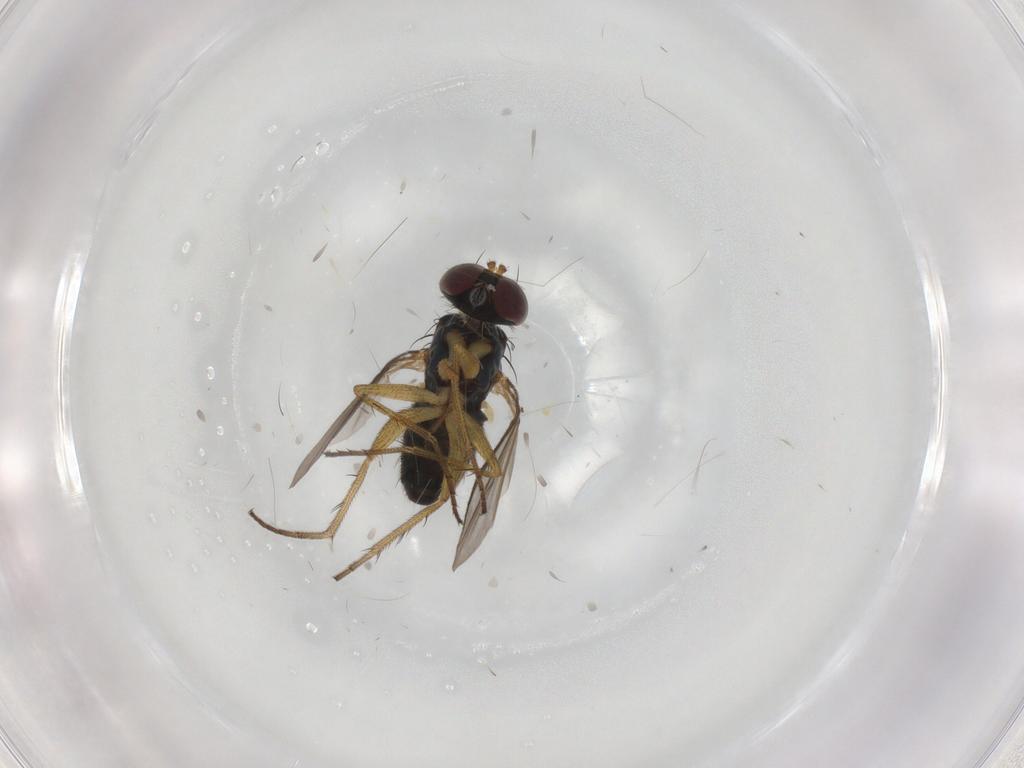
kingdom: Animalia
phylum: Arthropoda
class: Insecta
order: Diptera
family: Dolichopodidae
